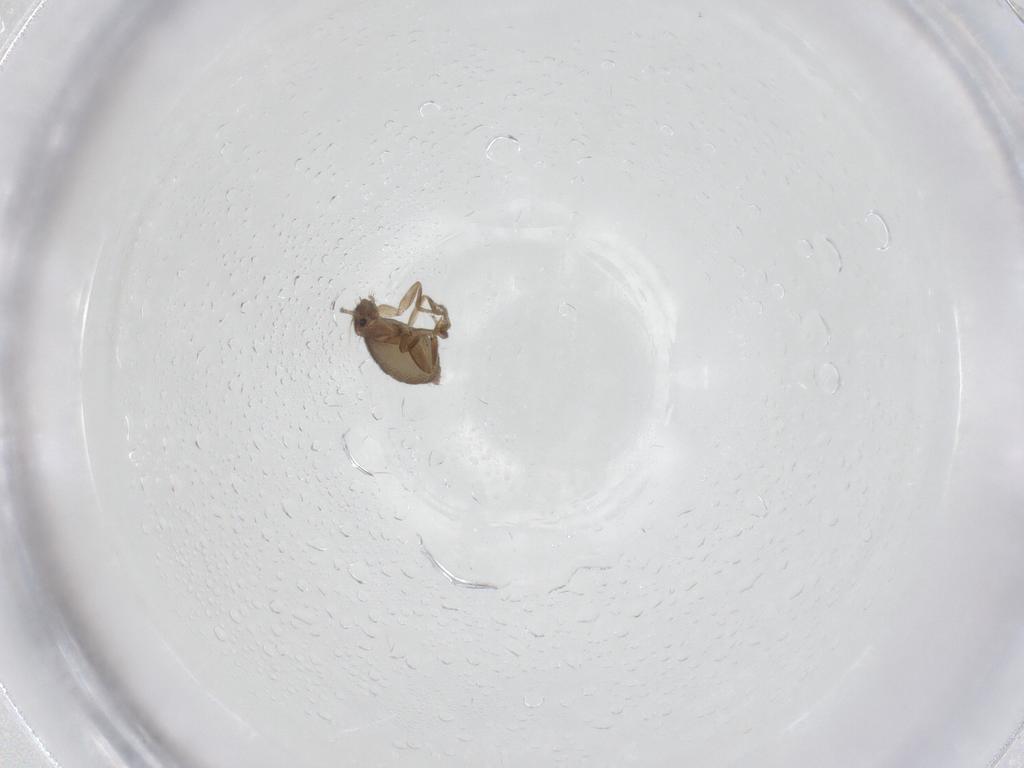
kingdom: Animalia
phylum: Arthropoda
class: Insecta
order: Diptera
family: Phoridae
